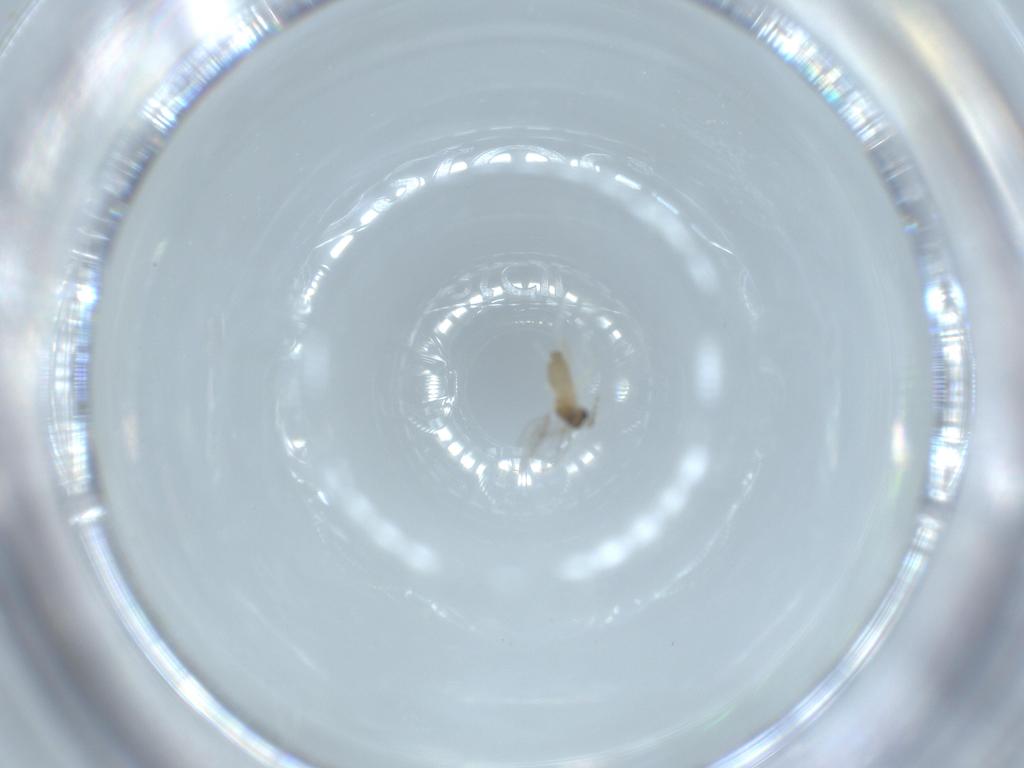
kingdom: Animalia
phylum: Arthropoda
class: Insecta
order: Diptera
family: Cecidomyiidae
